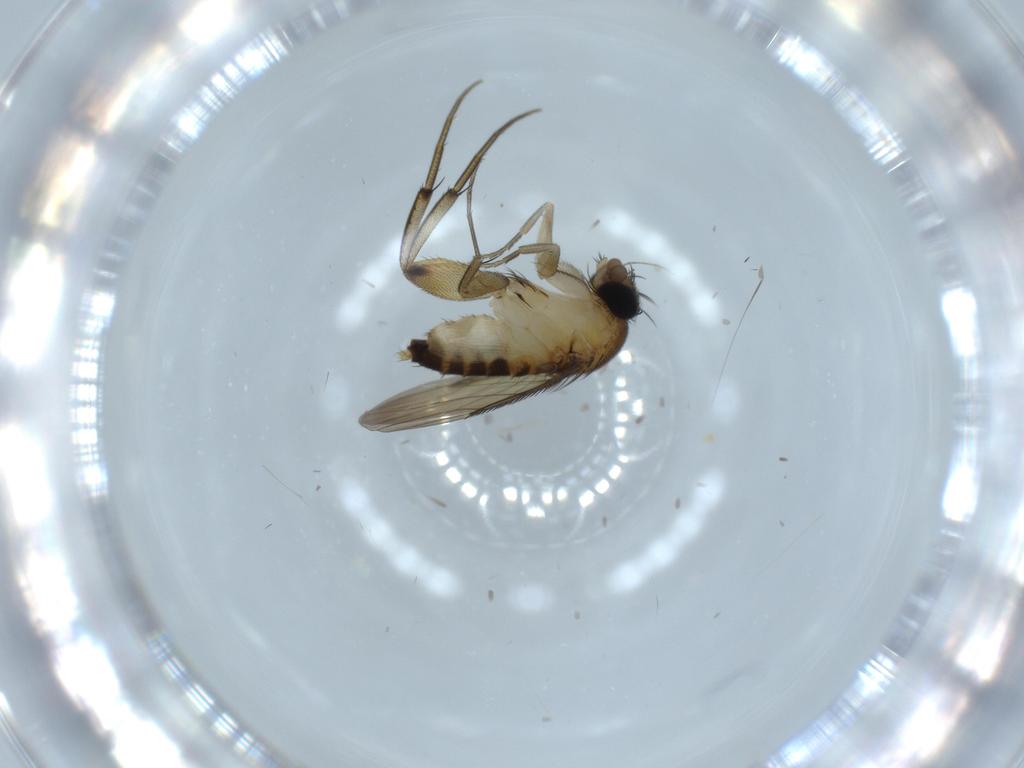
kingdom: Animalia
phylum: Arthropoda
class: Insecta
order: Diptera
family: Phoridae
